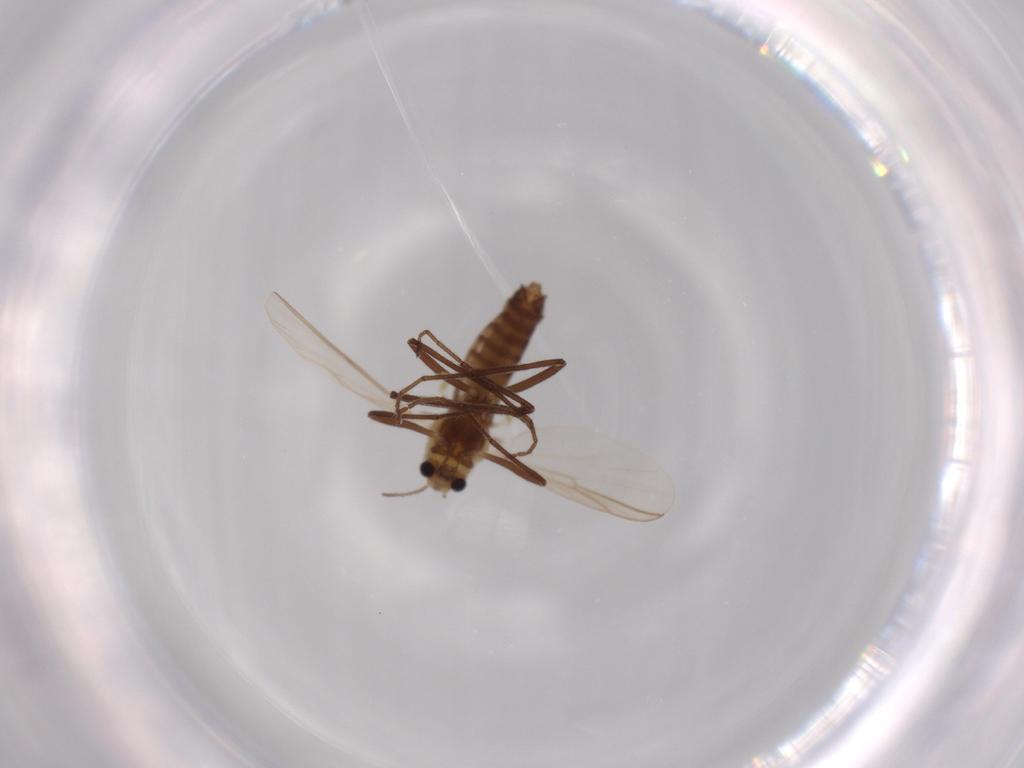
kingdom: Animalia
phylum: Arthropoda
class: Insecta
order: Diptera
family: Chironomidae
